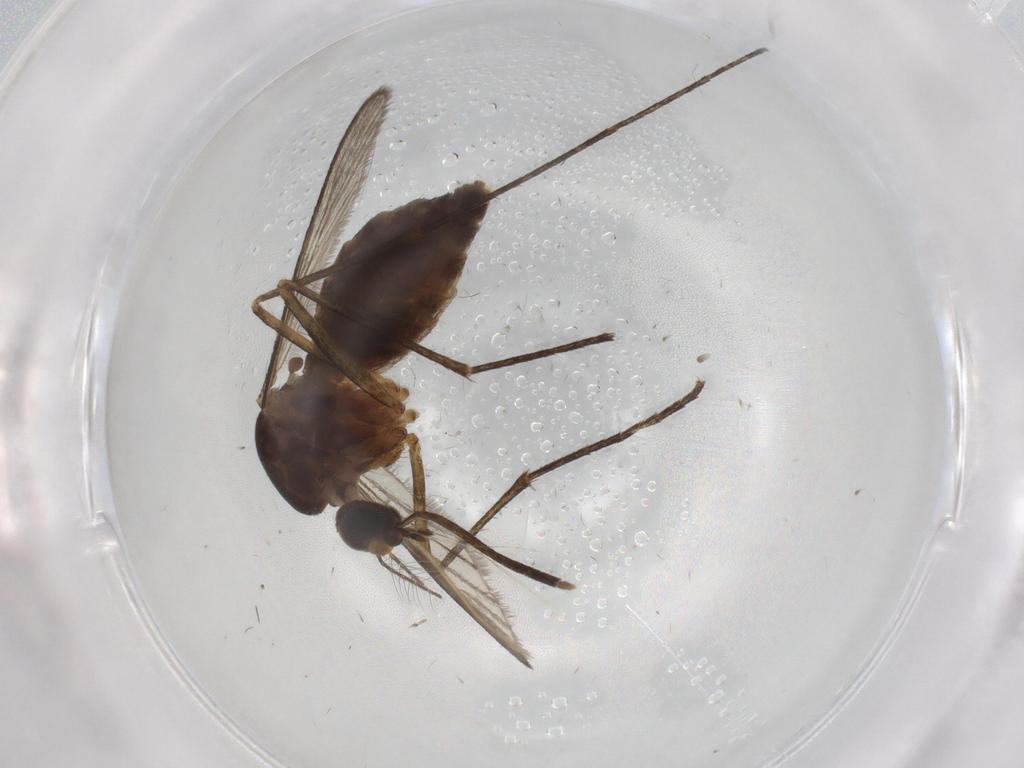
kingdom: Animalia
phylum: Arthropoda
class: Insecta
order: Diptera
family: Culicidae
